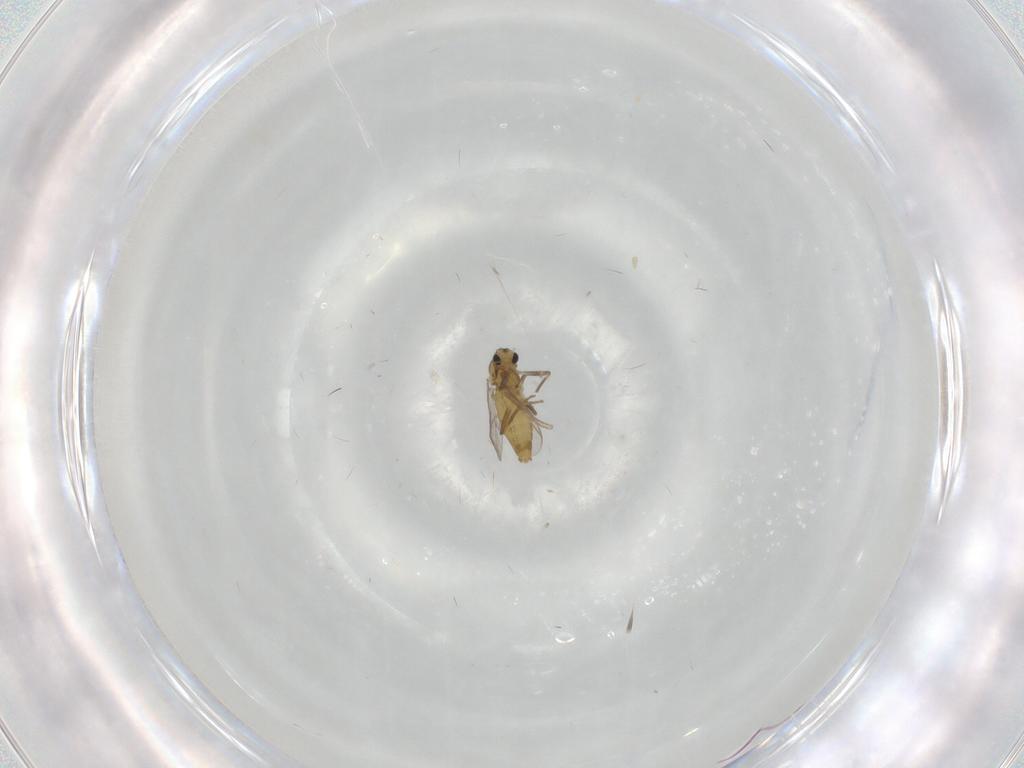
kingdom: Animalia
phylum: Arthropoda
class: Insecta
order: Diptera
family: Chironomidae
